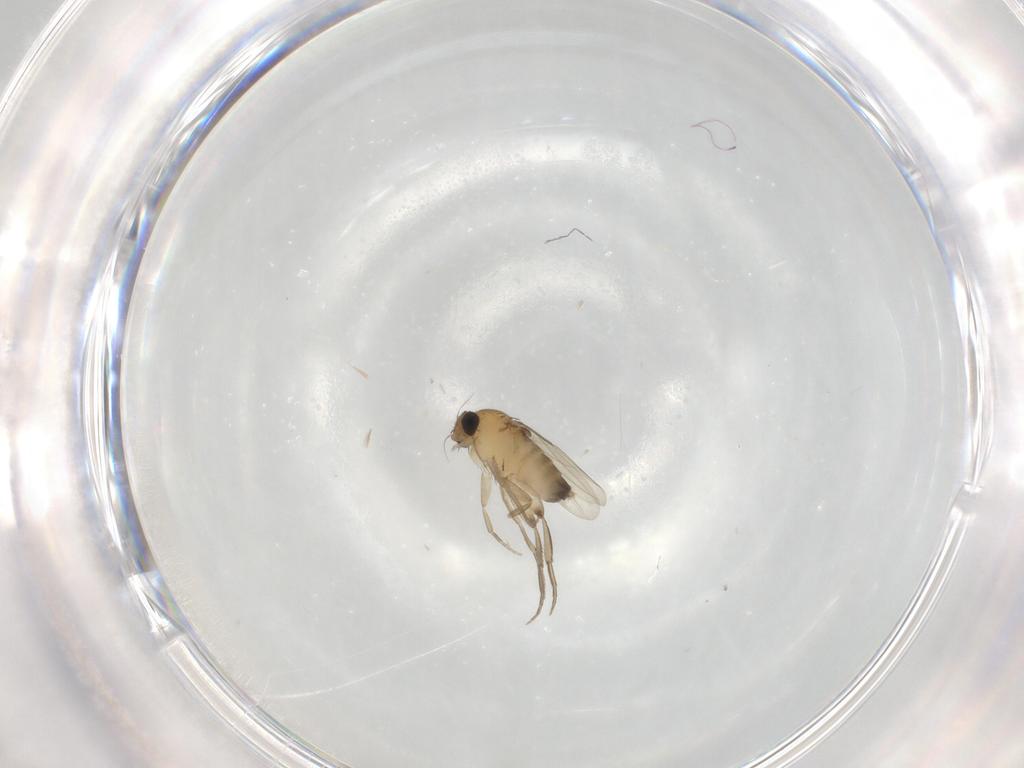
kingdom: Animalia
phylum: Arthropoda
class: Insecta
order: Diptera
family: Phoridae
